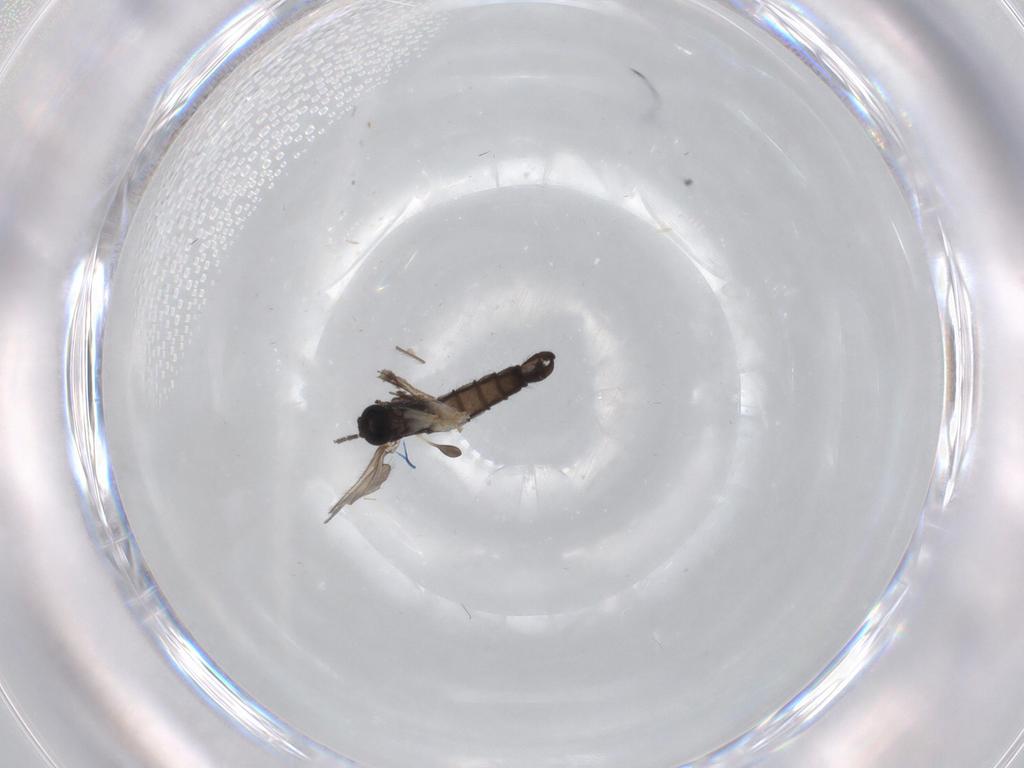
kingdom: Animalia
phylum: Arthropoda
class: Insecta
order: Diptera
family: Sciaridae
